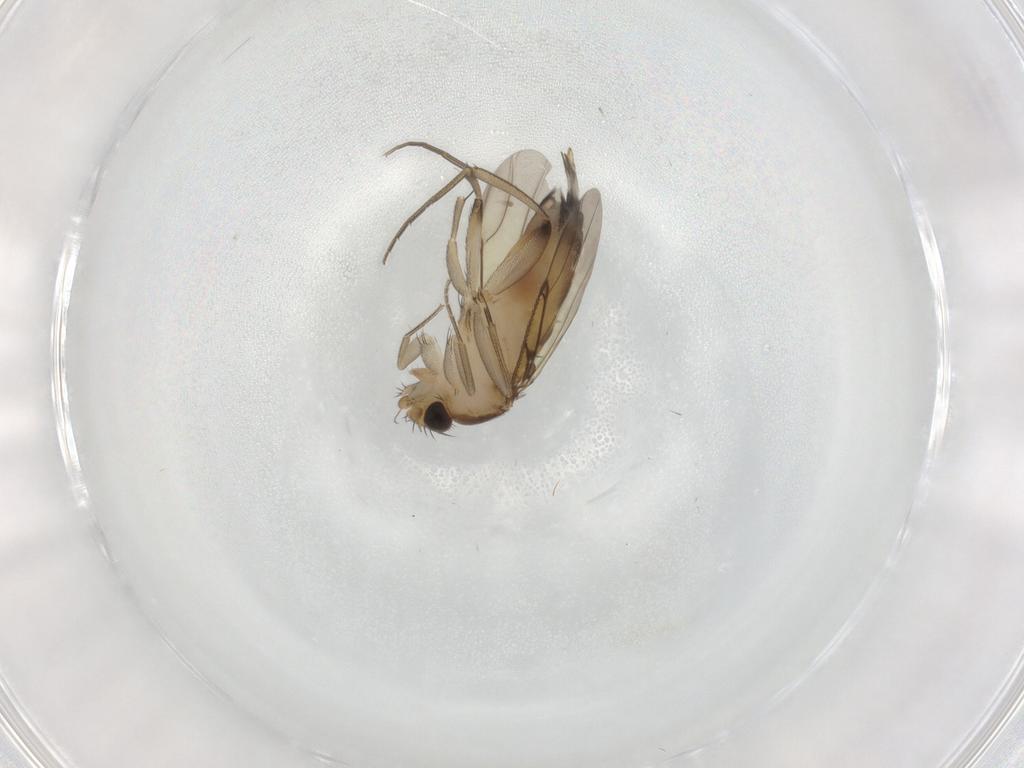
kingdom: Animalia
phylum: Arthropoda
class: Insecta
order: Diptera
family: Phoridae
